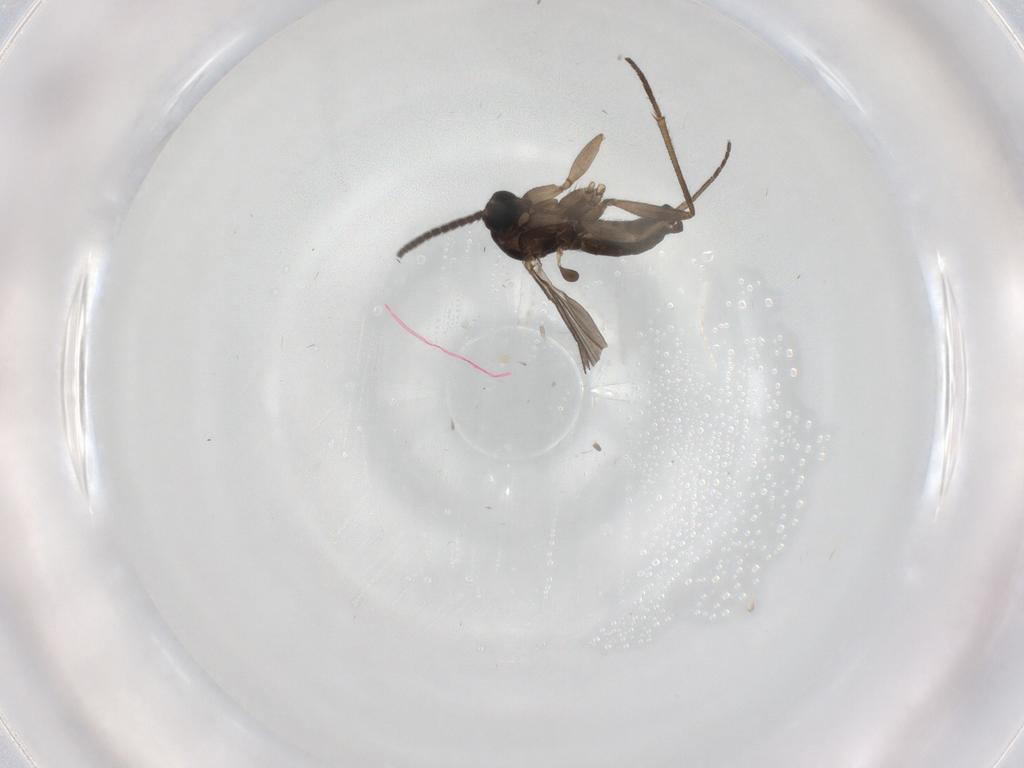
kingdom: Animalia
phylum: Arthropoda
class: Insecta
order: Diptera
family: Sciaridae
